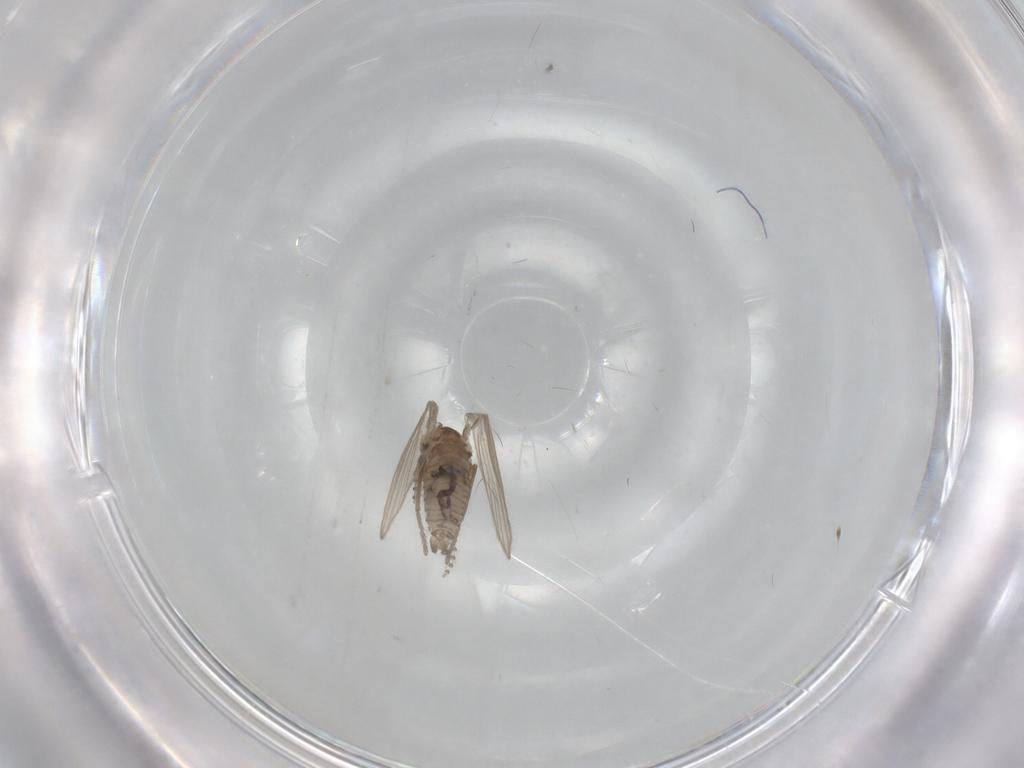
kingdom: Animalia
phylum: Arthropoda
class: Insecta
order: Diptera
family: Psychodidae
